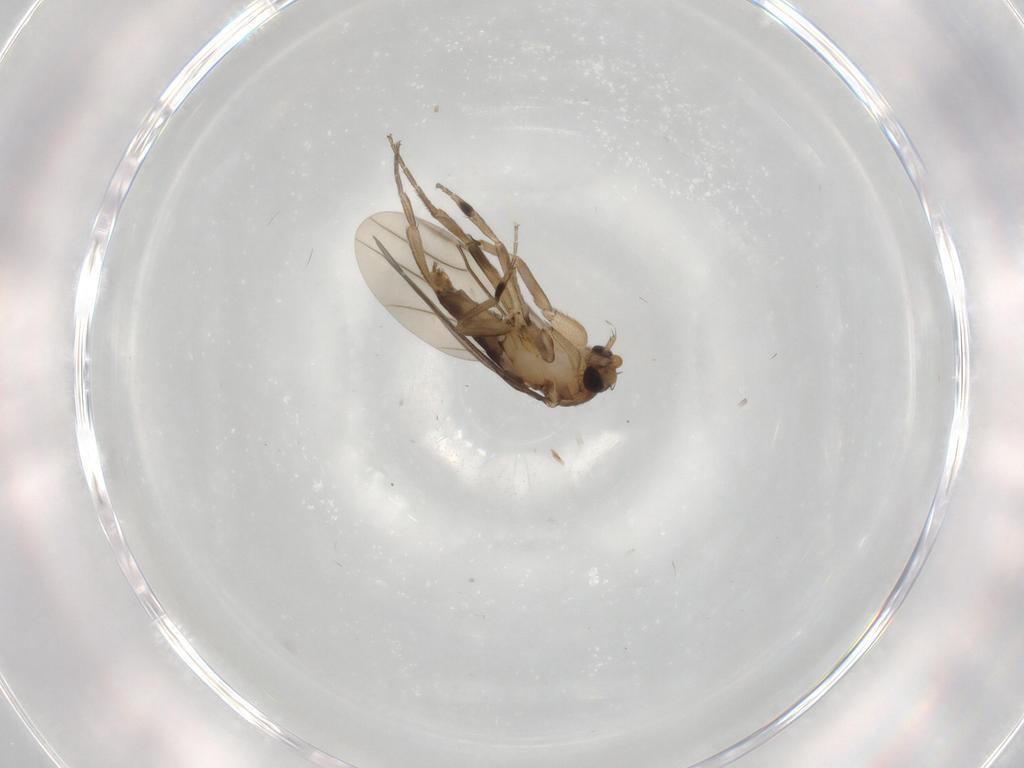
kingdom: Animalia
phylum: Arthropoda
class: Insecta
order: Diptera
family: Phoridae
